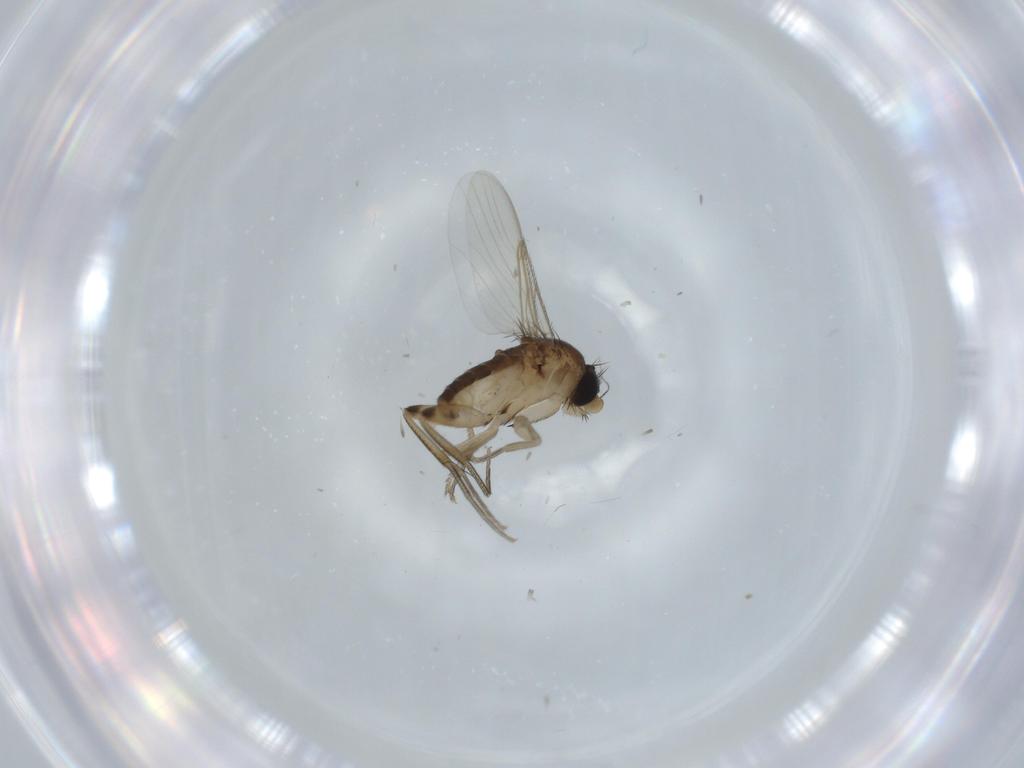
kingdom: Animalia
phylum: Arthropoda
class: Insecta
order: Diptera
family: Phoridae
